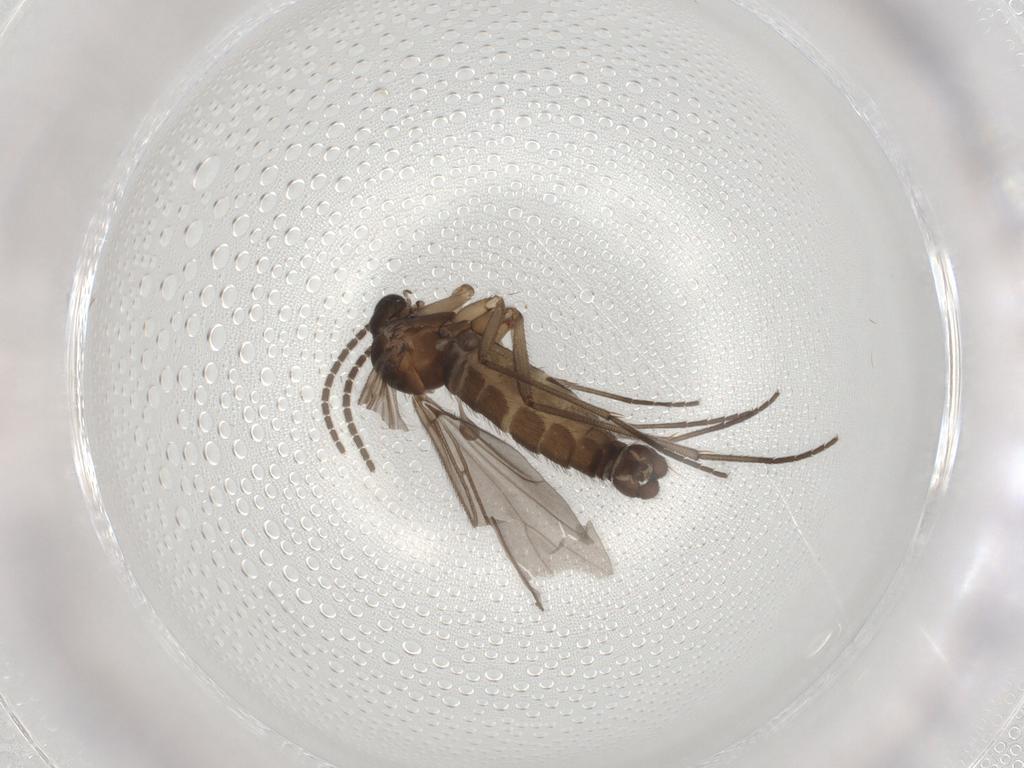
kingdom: Animalia
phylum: Arthropoda
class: Insecta
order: Diptera
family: Sciaridae
